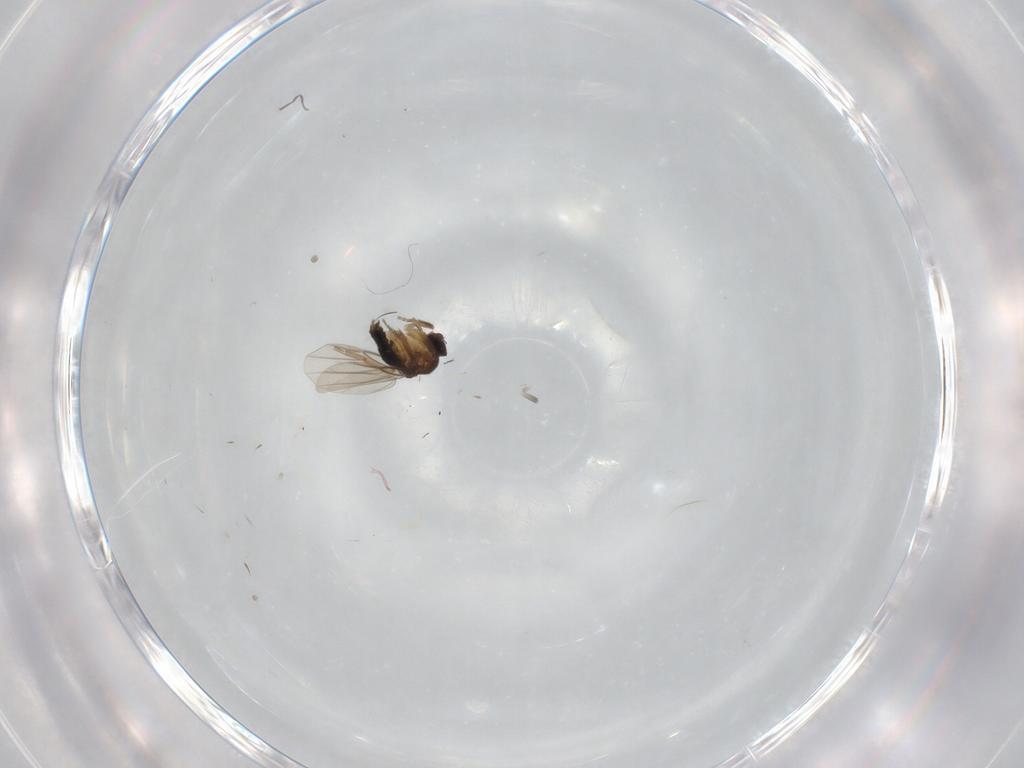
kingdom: Animalia
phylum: Arthropoda
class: Insecta
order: Diptera
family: Phoridae
